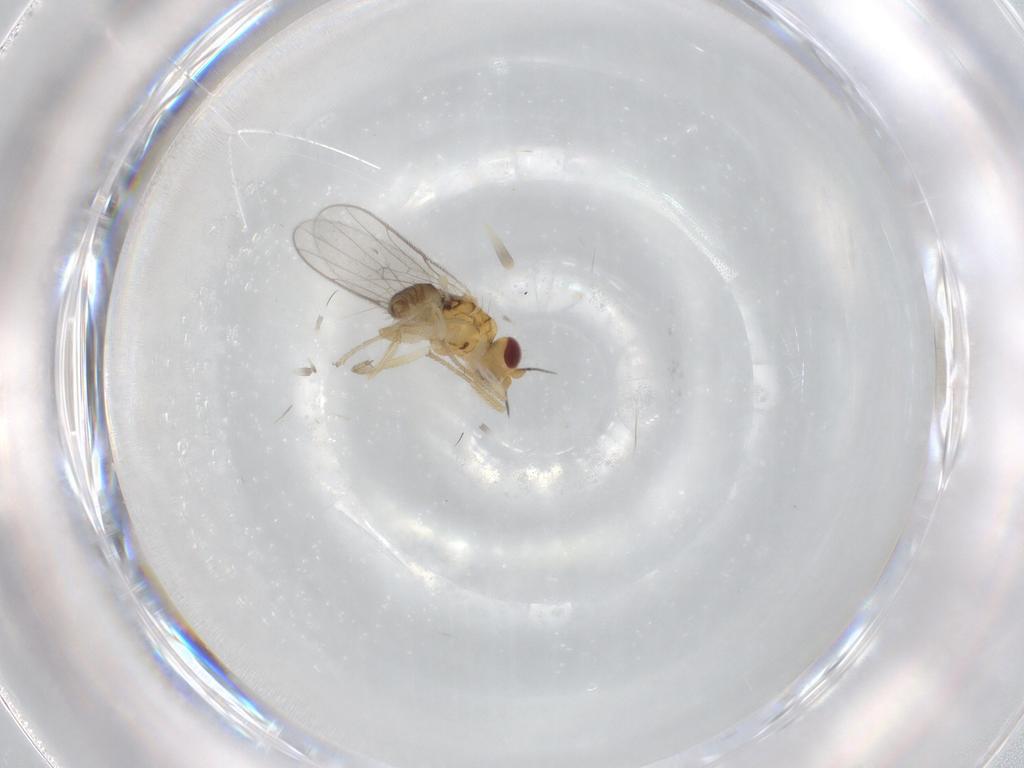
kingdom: Animalia
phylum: Arthropoda
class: Insecta
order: Diptera
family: Chloropidae
